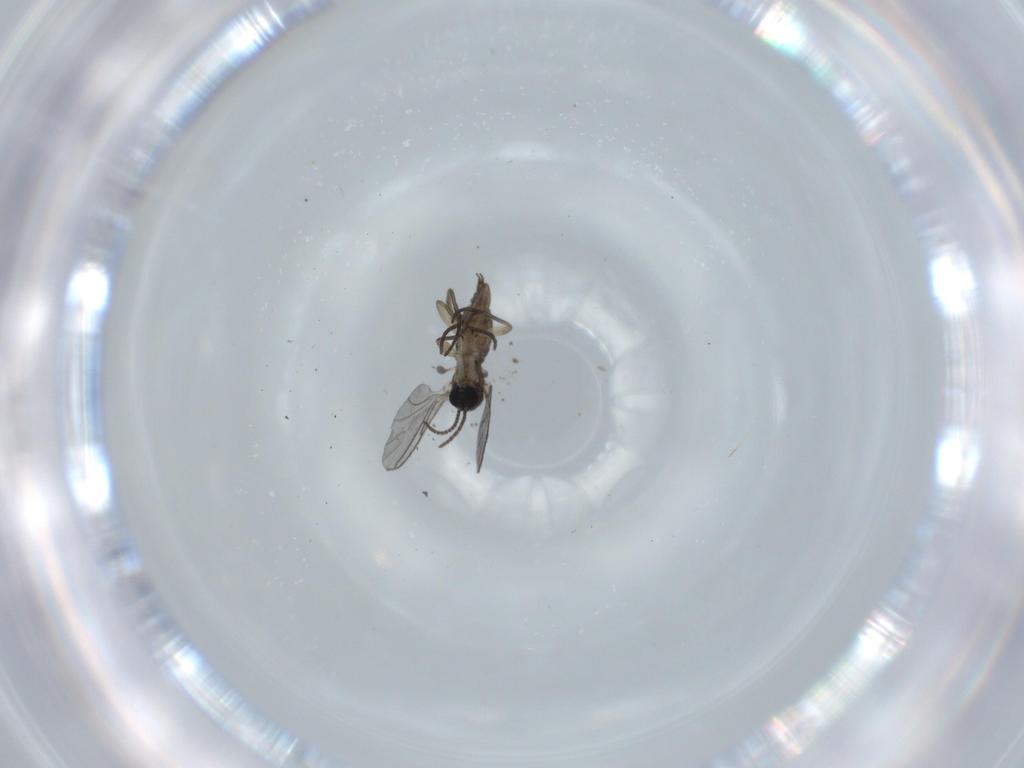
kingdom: Animalia
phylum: Arthropoda
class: Insecta
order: Diptera
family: Sciaridae
